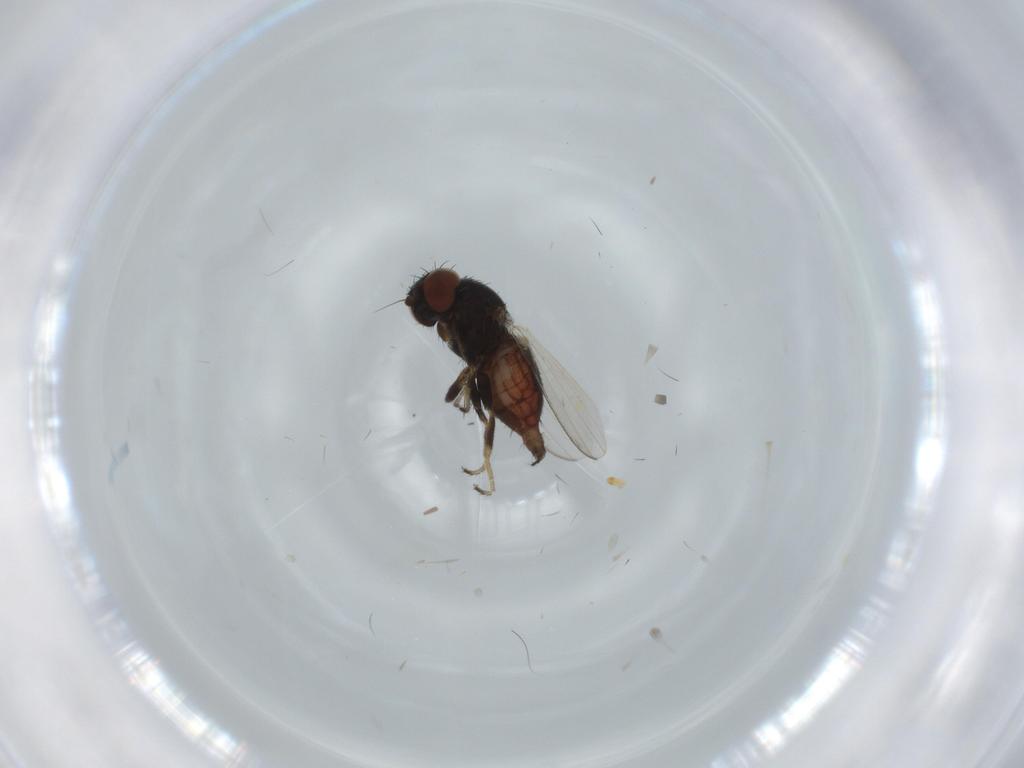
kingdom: Animalia
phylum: Arthropoda
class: Insecta
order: Diptera
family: Milichiidae
